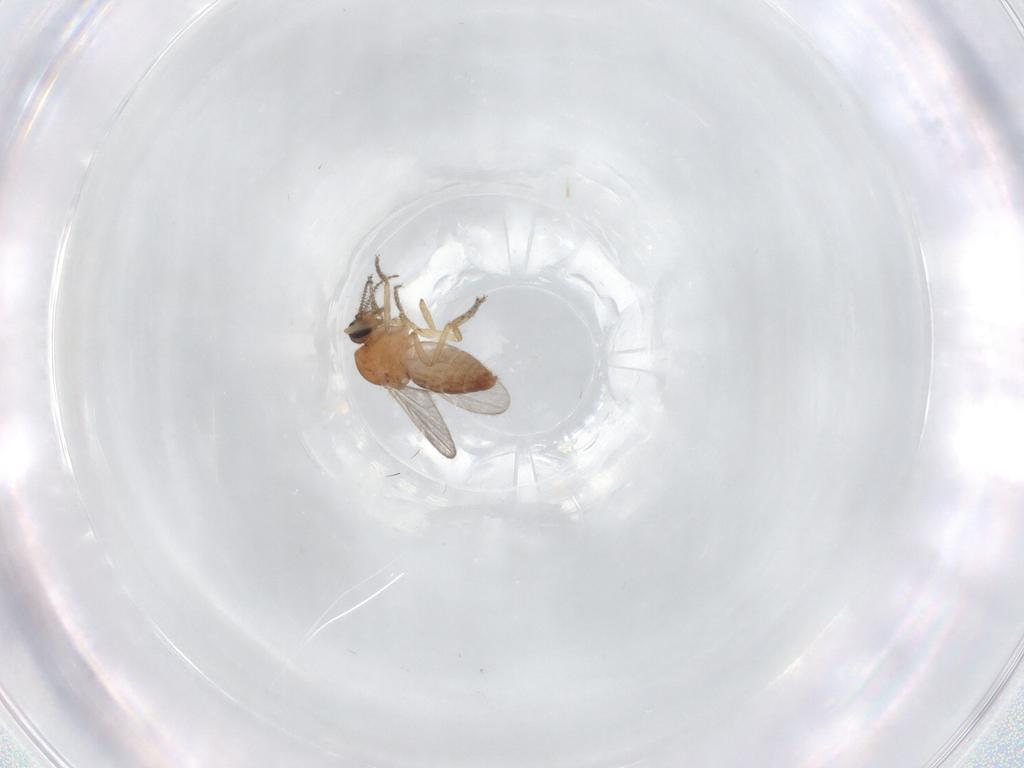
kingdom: Animalia
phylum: Arthropoda
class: Insecta
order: Diptera
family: Ceratopogonidae
